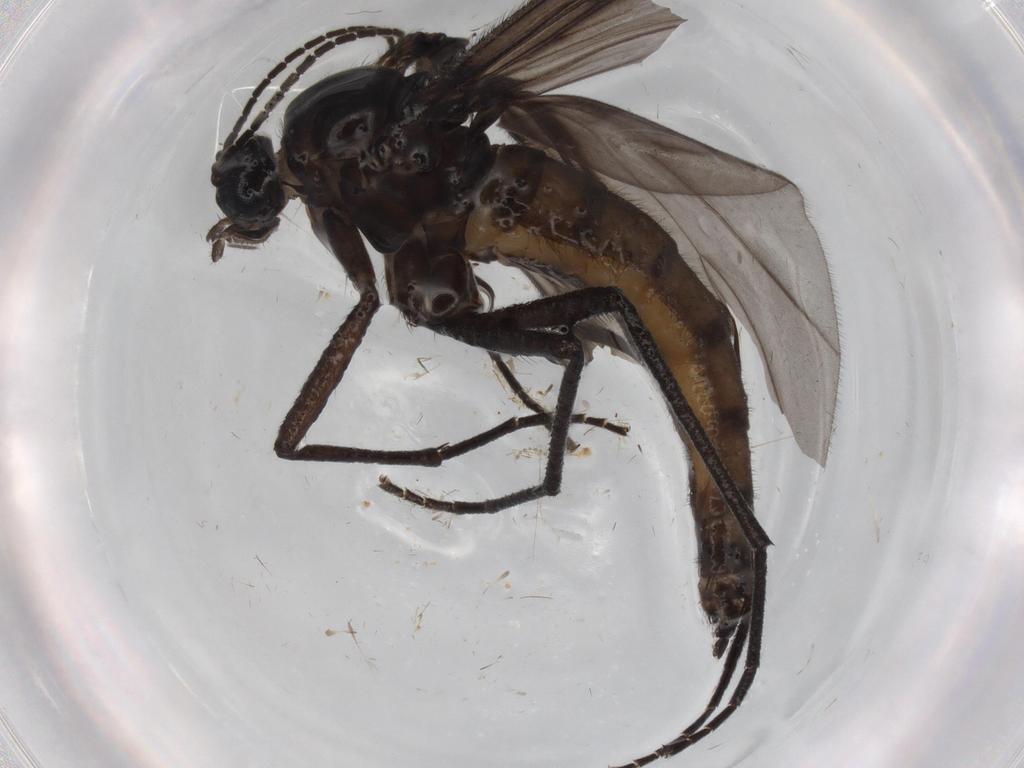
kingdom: Animalia
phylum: Arthropoda
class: Insecta
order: Diptera
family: Sciaridae
